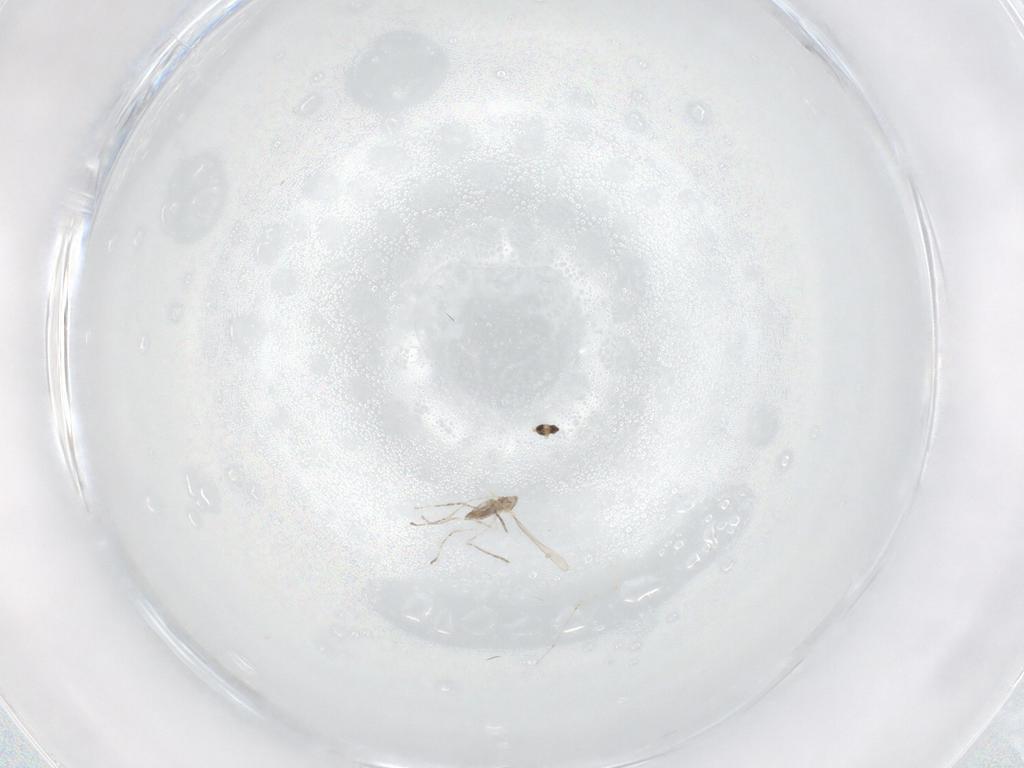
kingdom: Animalia
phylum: Arthropoda
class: Insecta
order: Diptera
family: Cecidomyiidae
